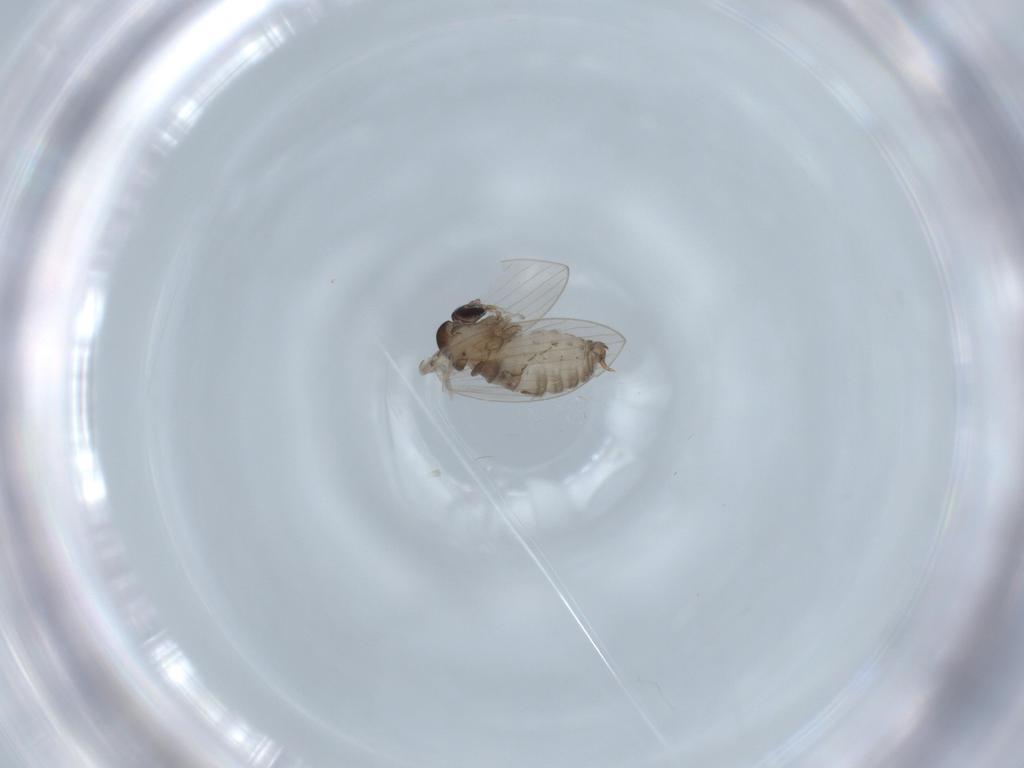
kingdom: Animalia
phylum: Arthropoda
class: Insecta
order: Diptera
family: Psychodidae
